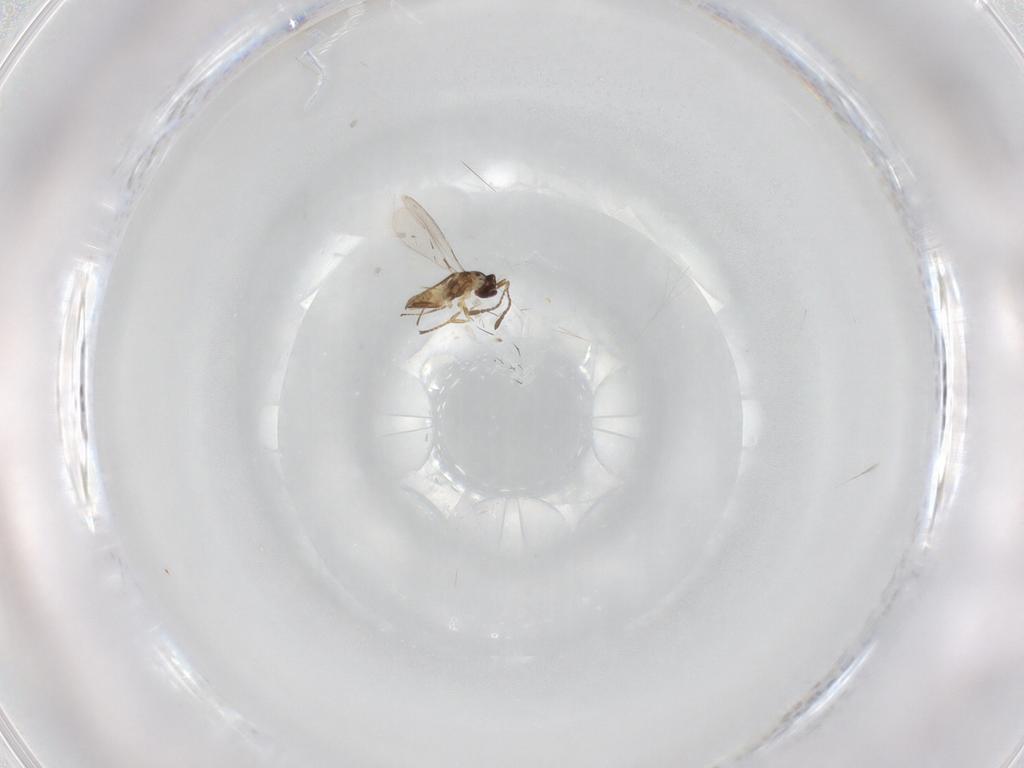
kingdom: Animalia
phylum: Arthropoda
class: Insecta
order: Hymenoptera
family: Mymaridae
